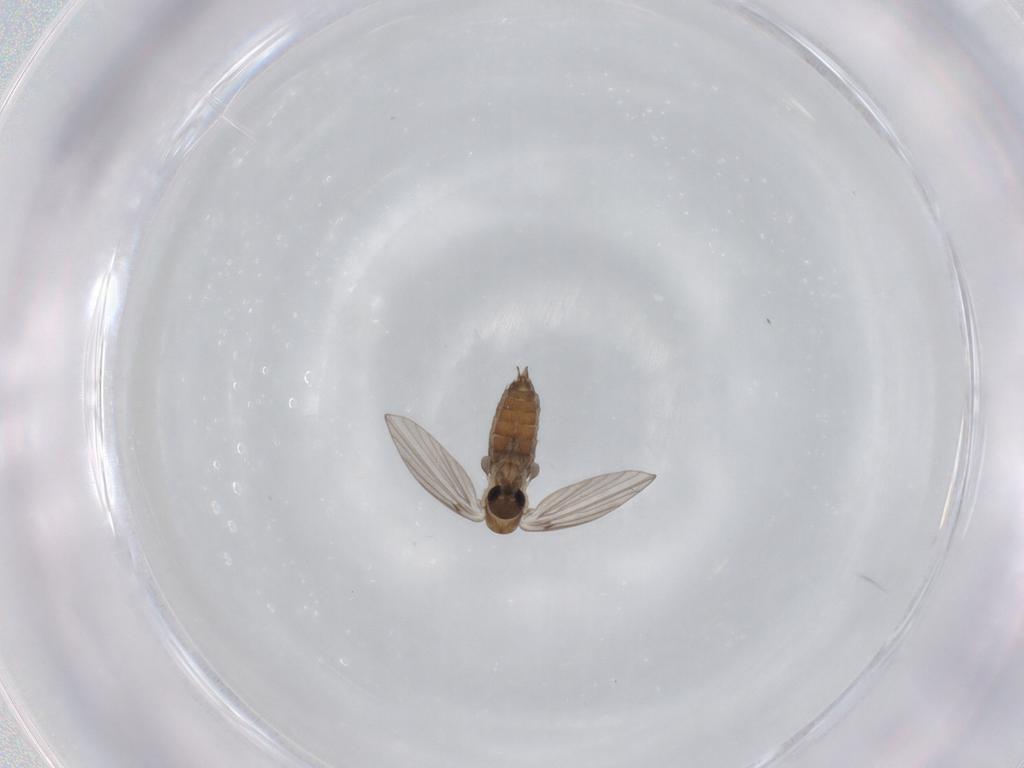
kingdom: Animalia
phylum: Arthropoda
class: Insecta
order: Diptera
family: Psychodidae
